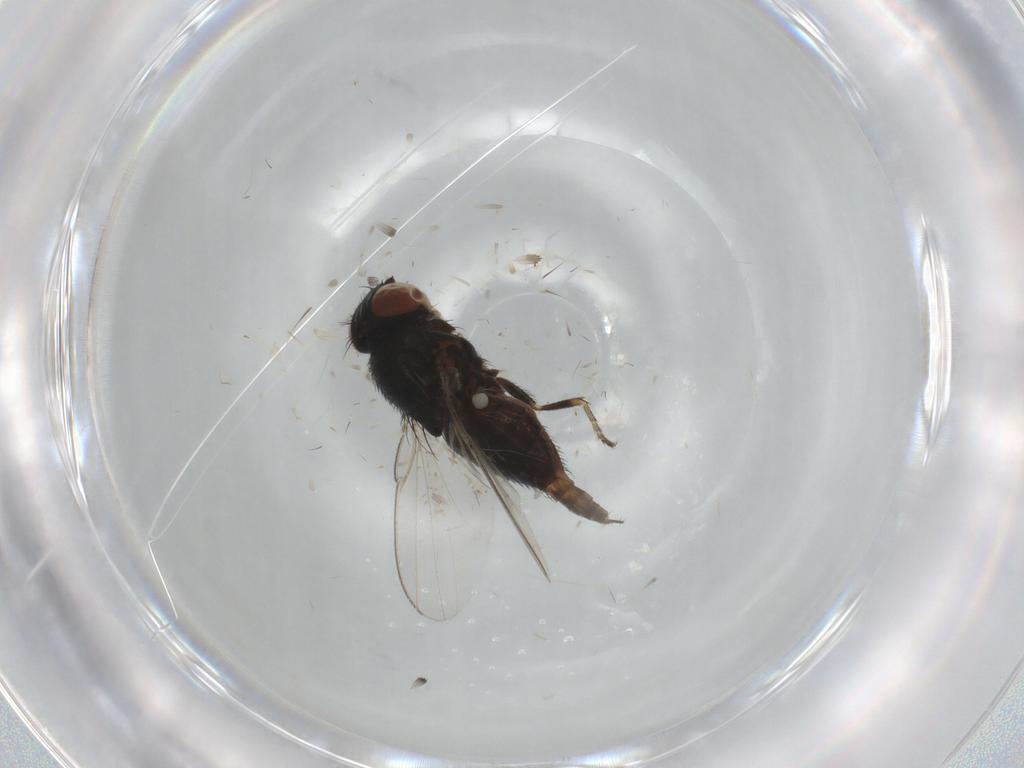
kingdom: Animalia
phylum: Arthropoda
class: Insecta
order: Diptera
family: Milichiidae
